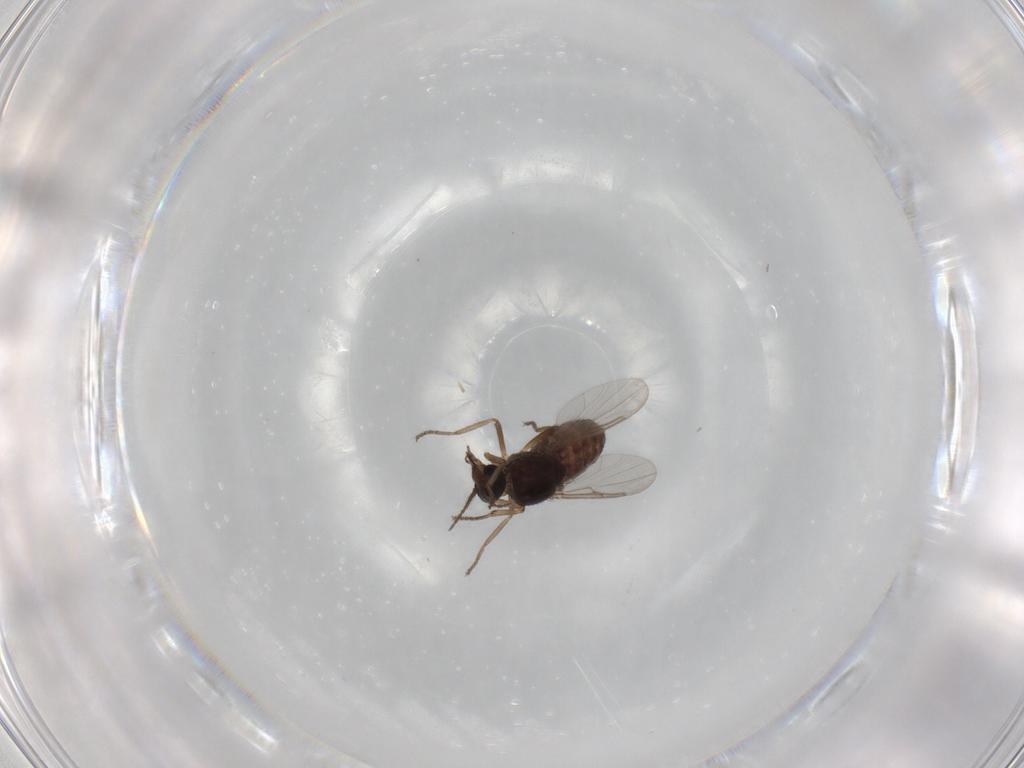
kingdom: Animalia
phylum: Arthropoda
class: Insecta
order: Diptera
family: Ceratopogonidae
